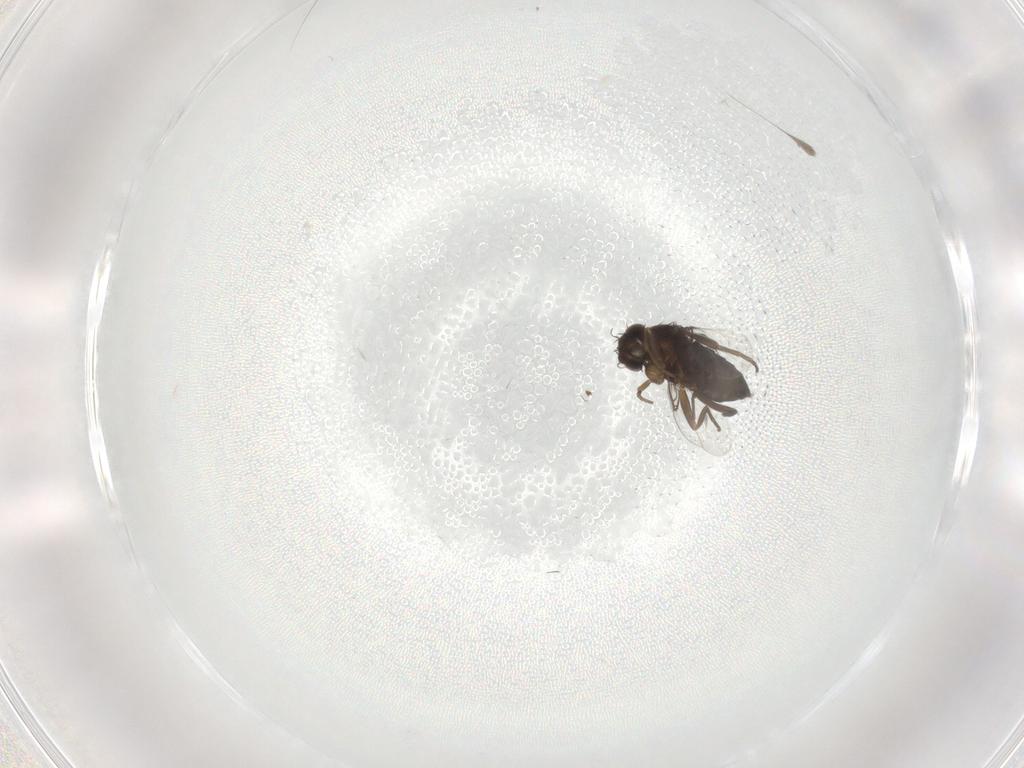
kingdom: Animalia
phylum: Arthropoda
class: Insecta
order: Diptera
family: Phoridae
